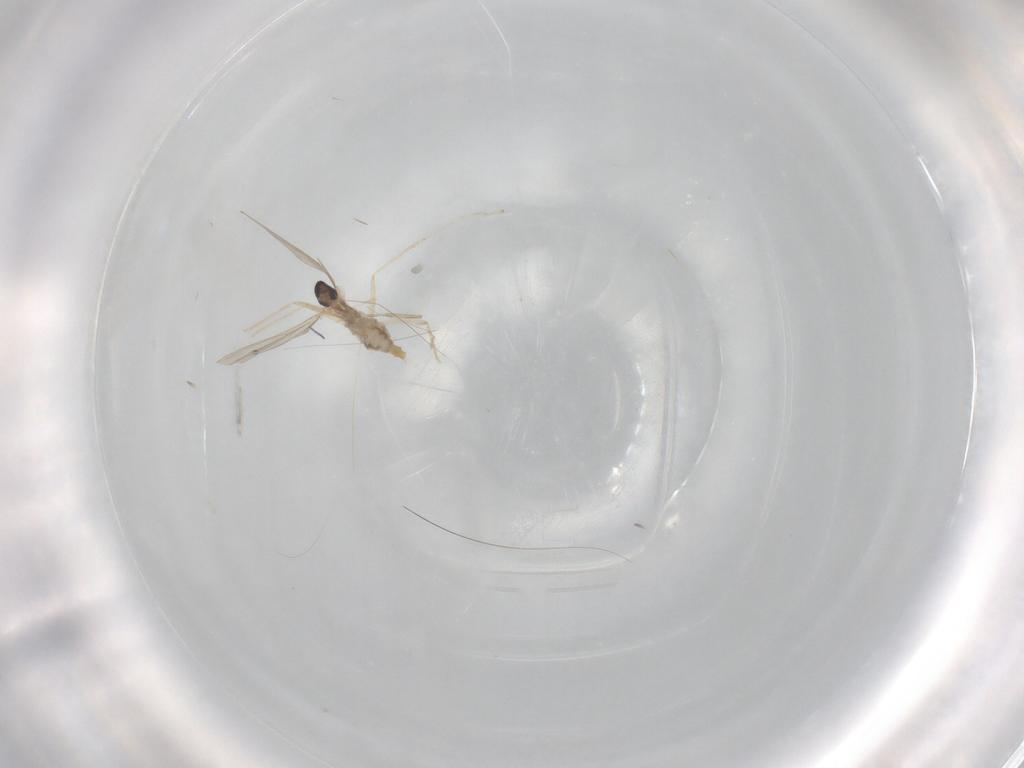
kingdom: Animalia
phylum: Arthropoda
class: Insecta
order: Diptera
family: Cecidomyiidae
